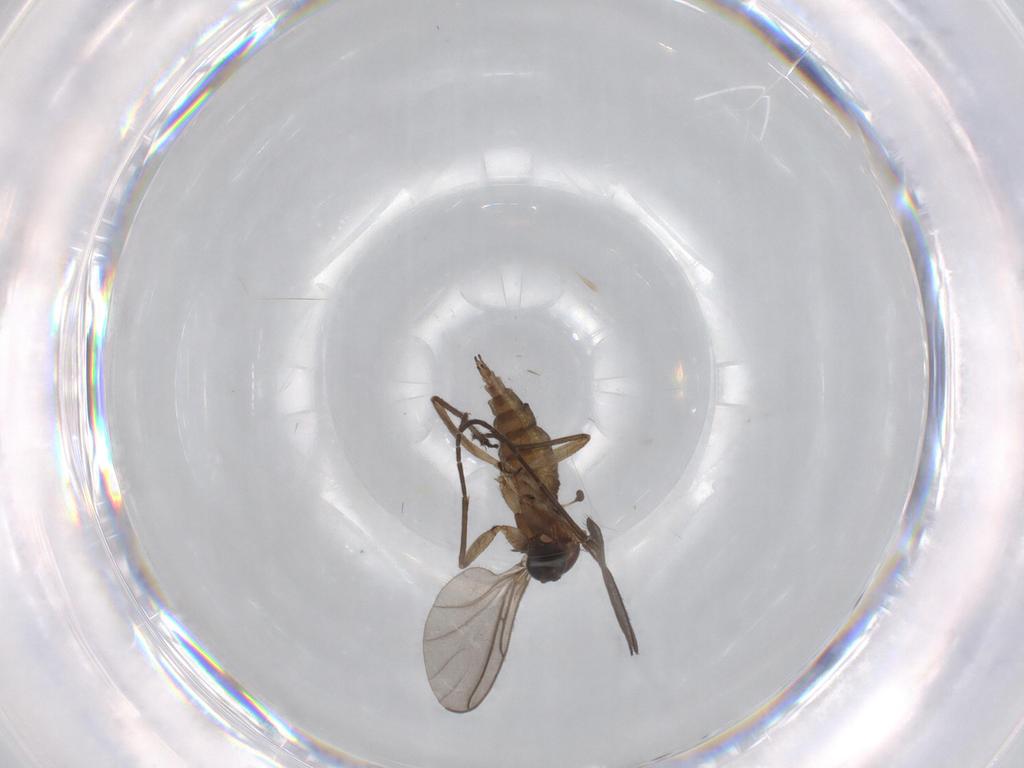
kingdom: Animalia
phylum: Arthropoda
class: Insecta
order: Diptera
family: Sciaridae
